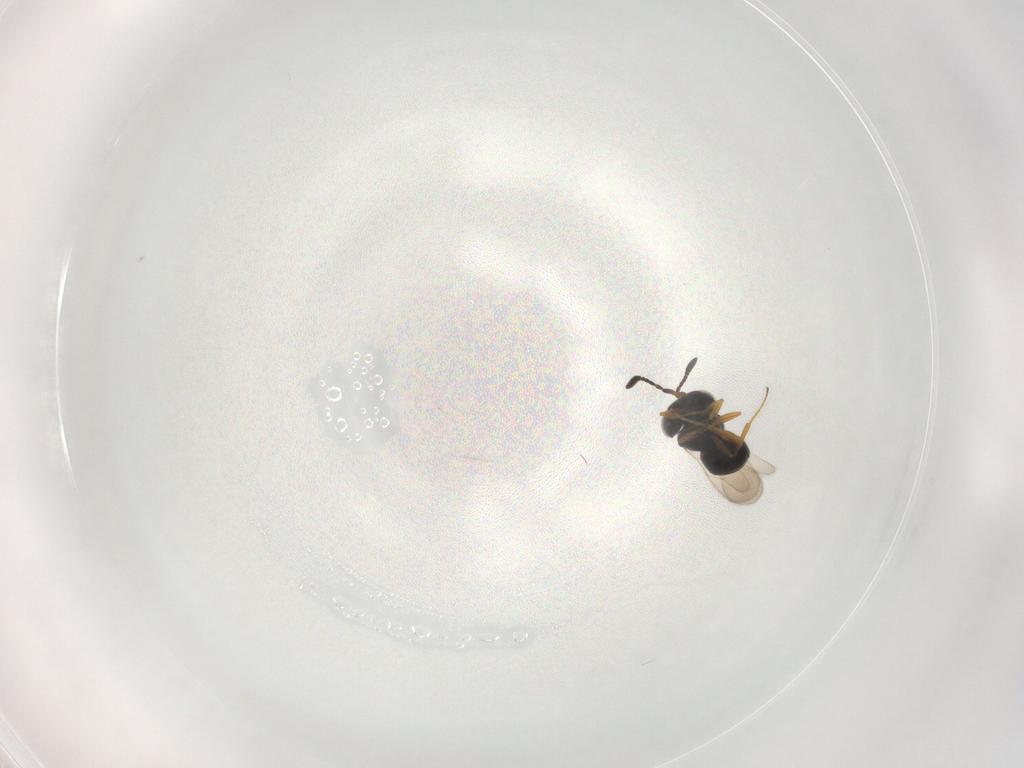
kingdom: Animalia
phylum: Arthropoda
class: Insecta
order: Hymenoptera
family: Scelionidae
